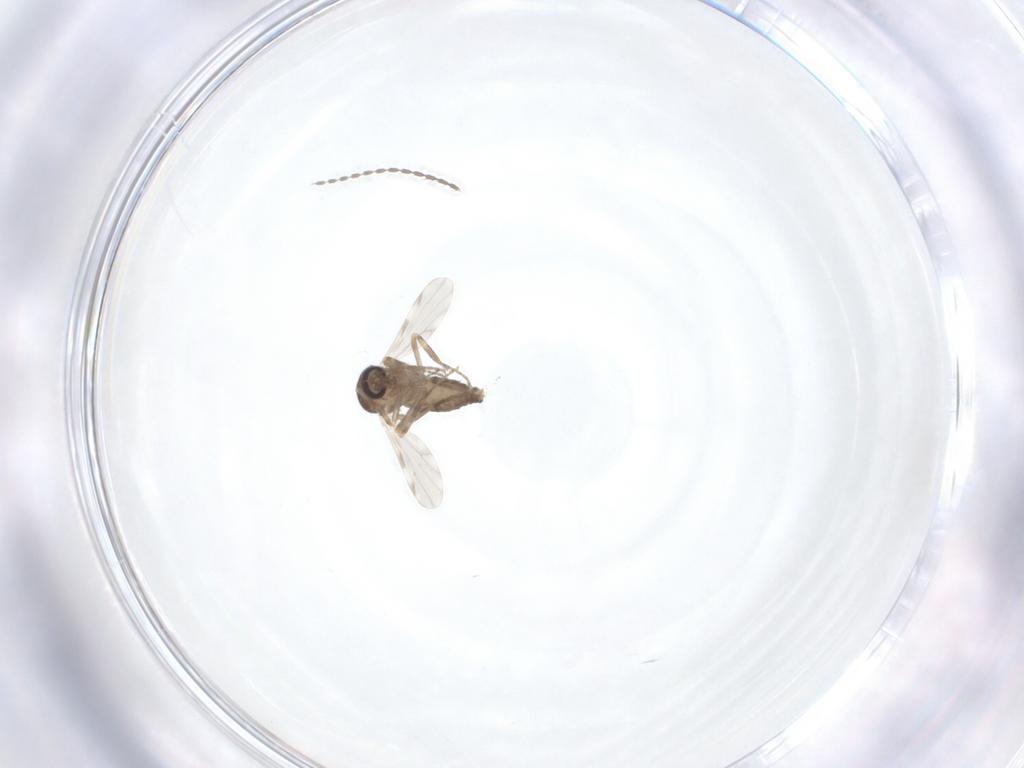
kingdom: Animalia
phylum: Arthropoda
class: Insecta
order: Diptera
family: Ceratopogonidae
